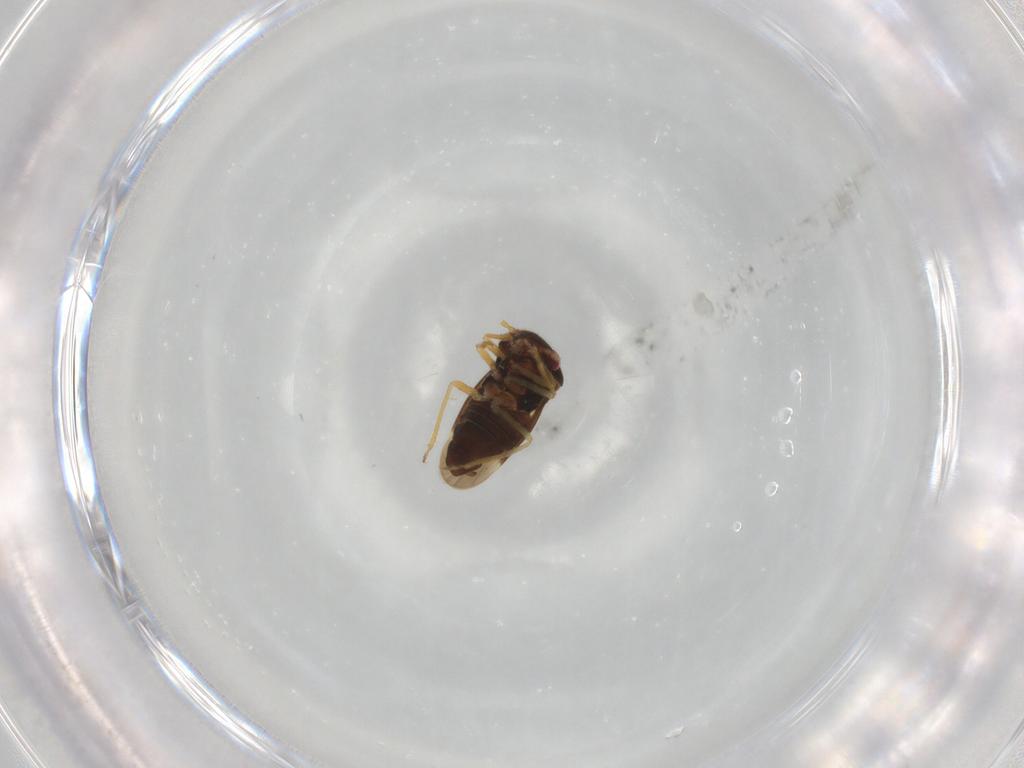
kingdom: Animalia
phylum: Arthropoda
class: Insecta
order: Hemiptera
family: Schizopteridae
